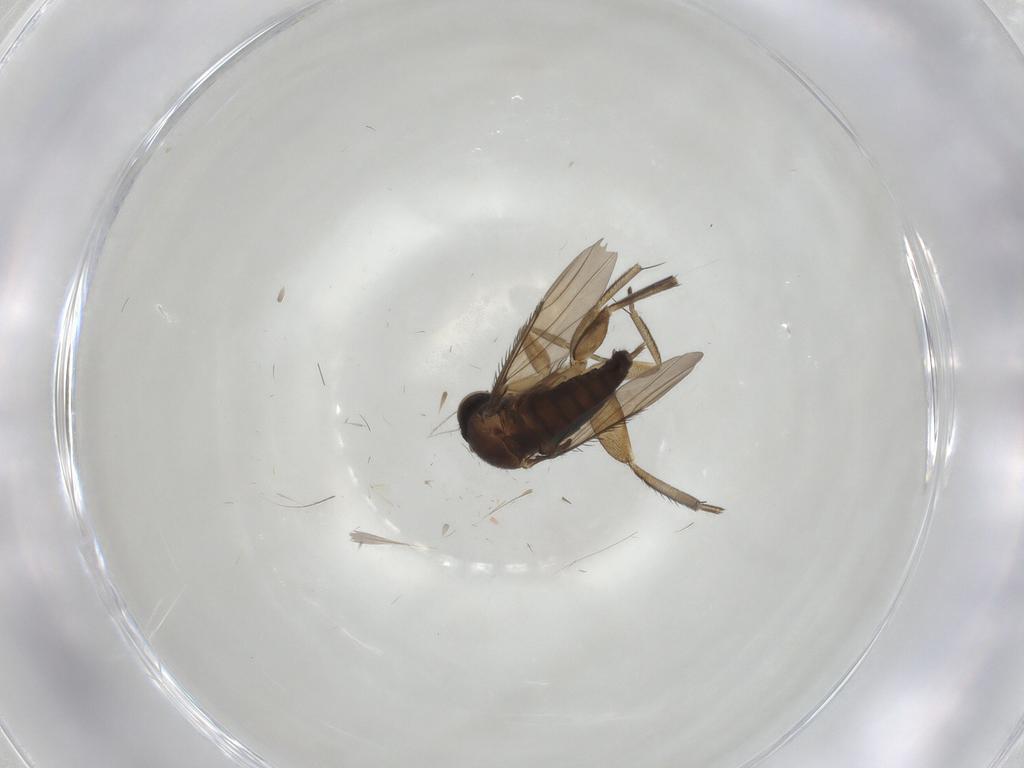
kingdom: Animalia
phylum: Arthropoda
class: Insecta
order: Diptera
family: Phoridae
